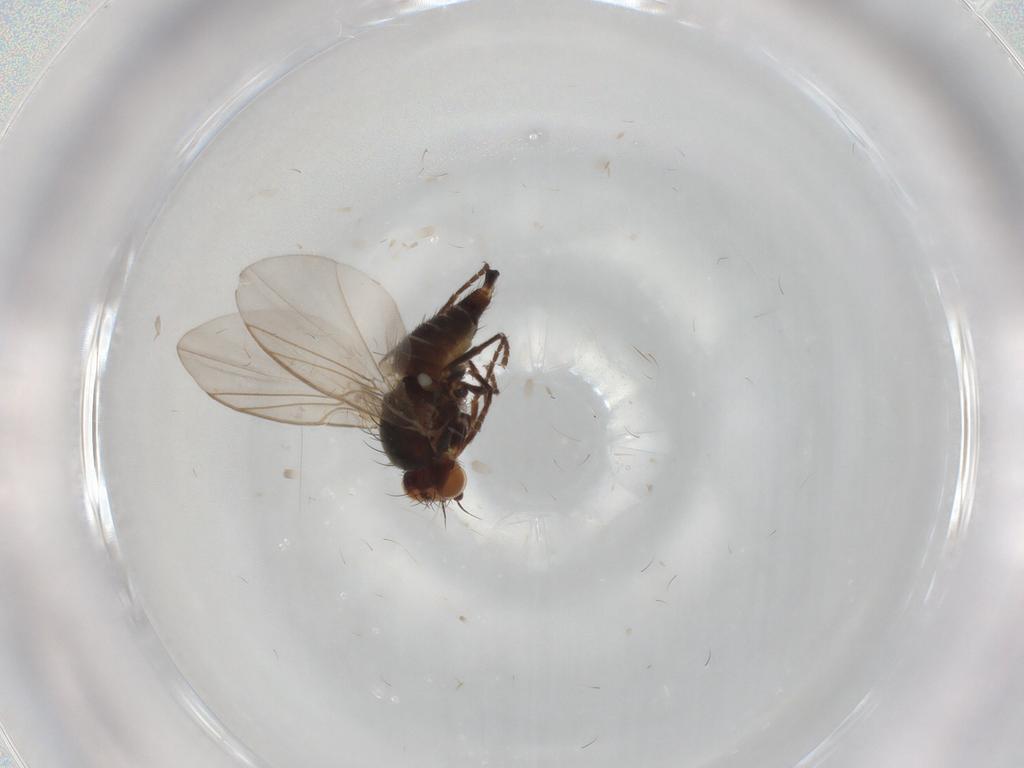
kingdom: Animalia
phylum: Arthropoda
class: Insecta
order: Diptera
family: Agromyzidae
